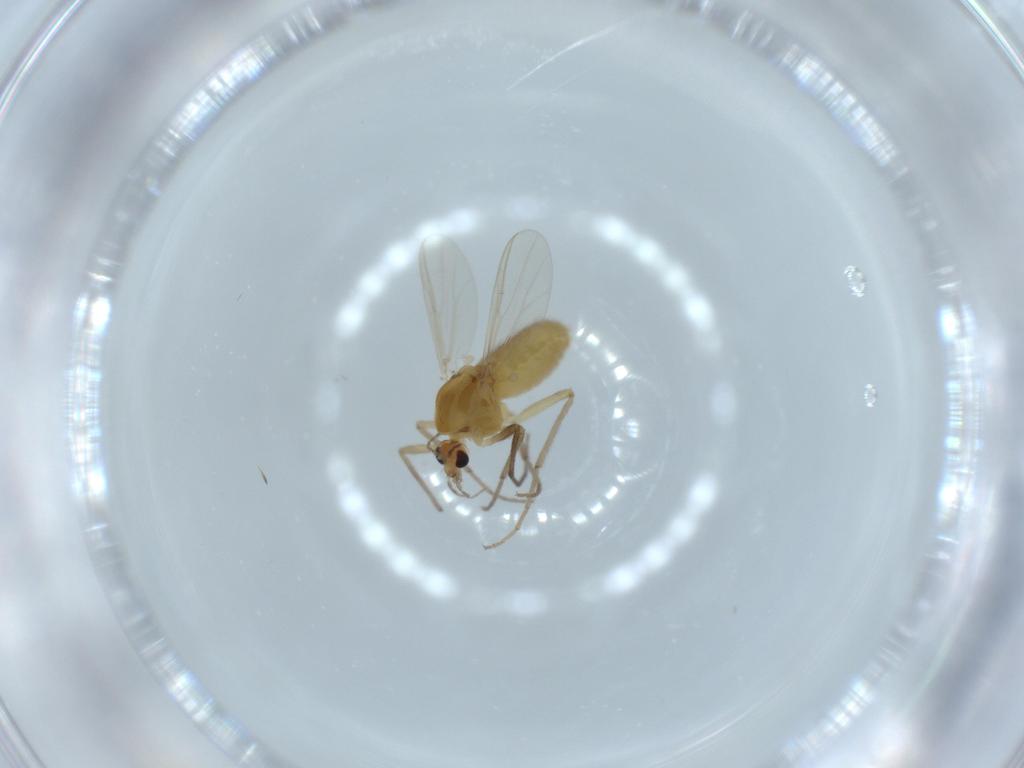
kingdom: Animalia
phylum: Arthropoda
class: Insecta
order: Diptera
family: Chironomidae
